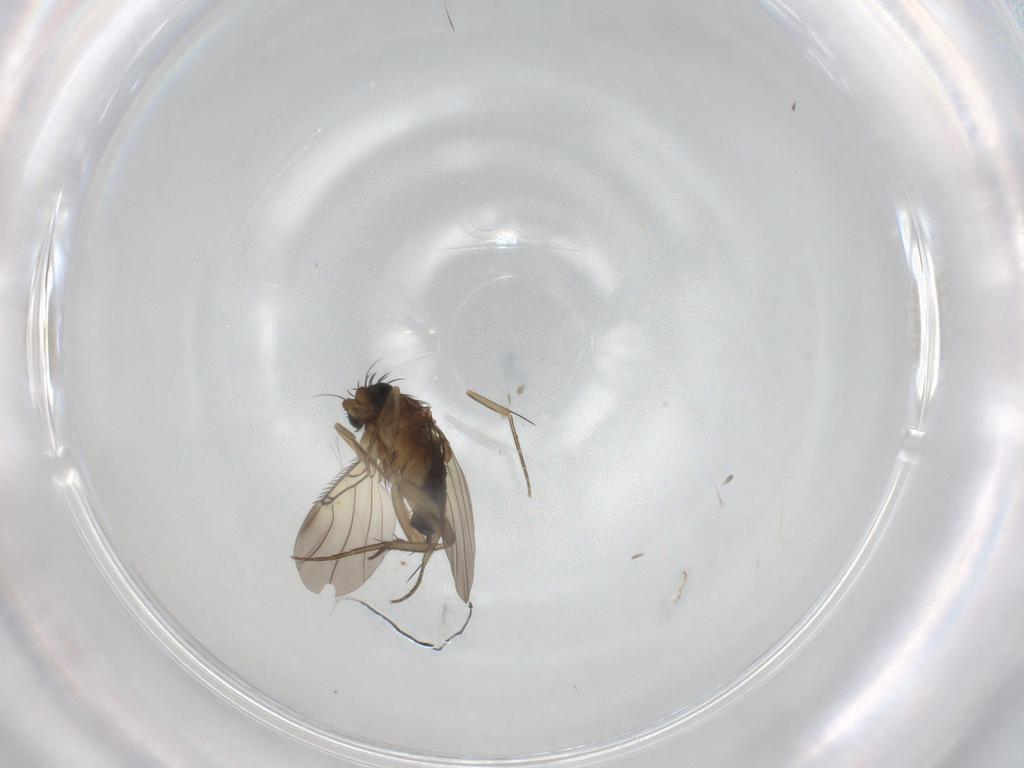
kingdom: Animalia
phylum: Arthropoda
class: Insecta
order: Diptera
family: Phoridae
